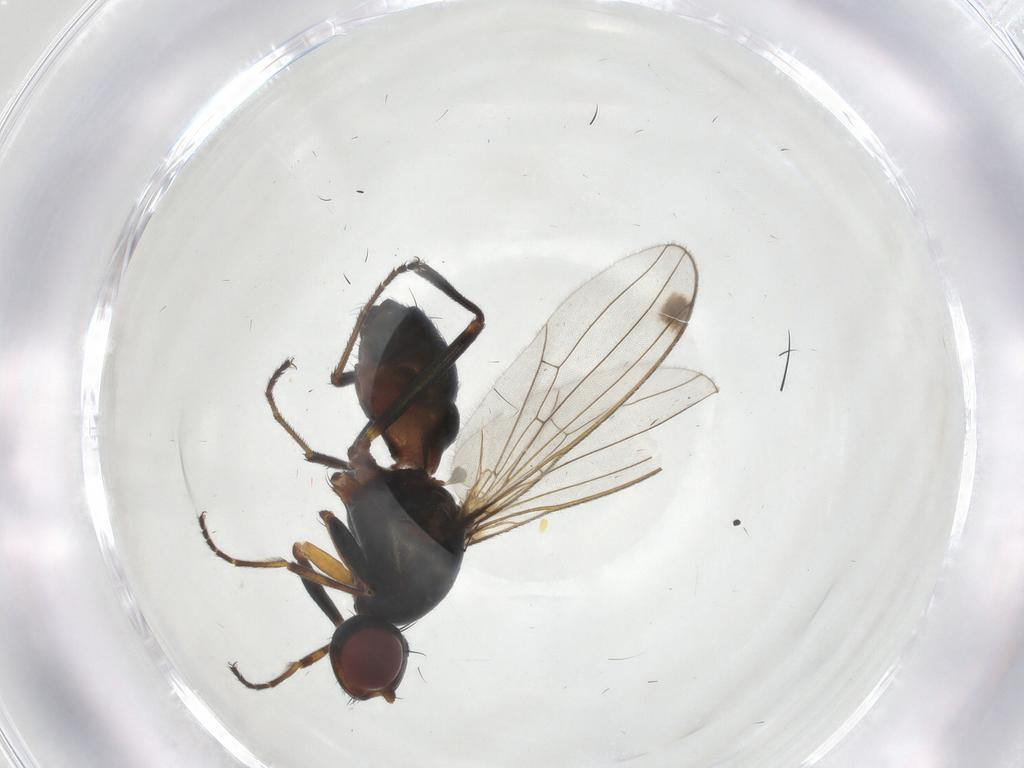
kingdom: Animalia
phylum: Arthropoda
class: Insecta
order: Diptera
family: Sepsidae
